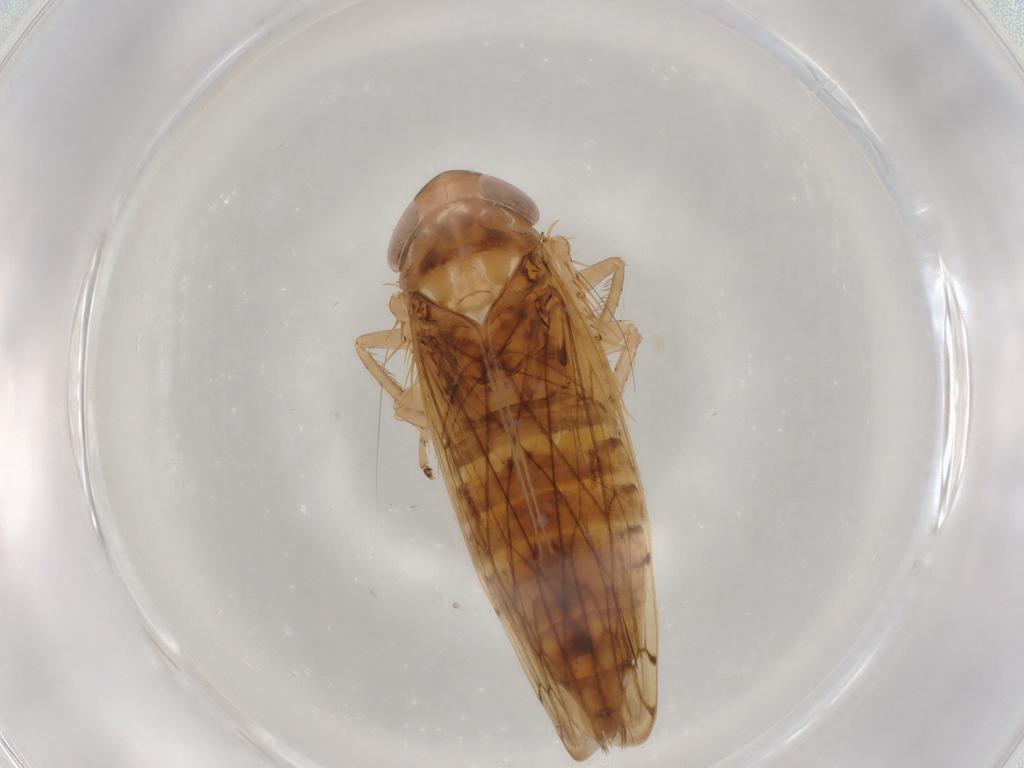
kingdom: Animalia
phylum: Arthropoda
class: Insecta
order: Hemiptera
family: Cicadellidae
